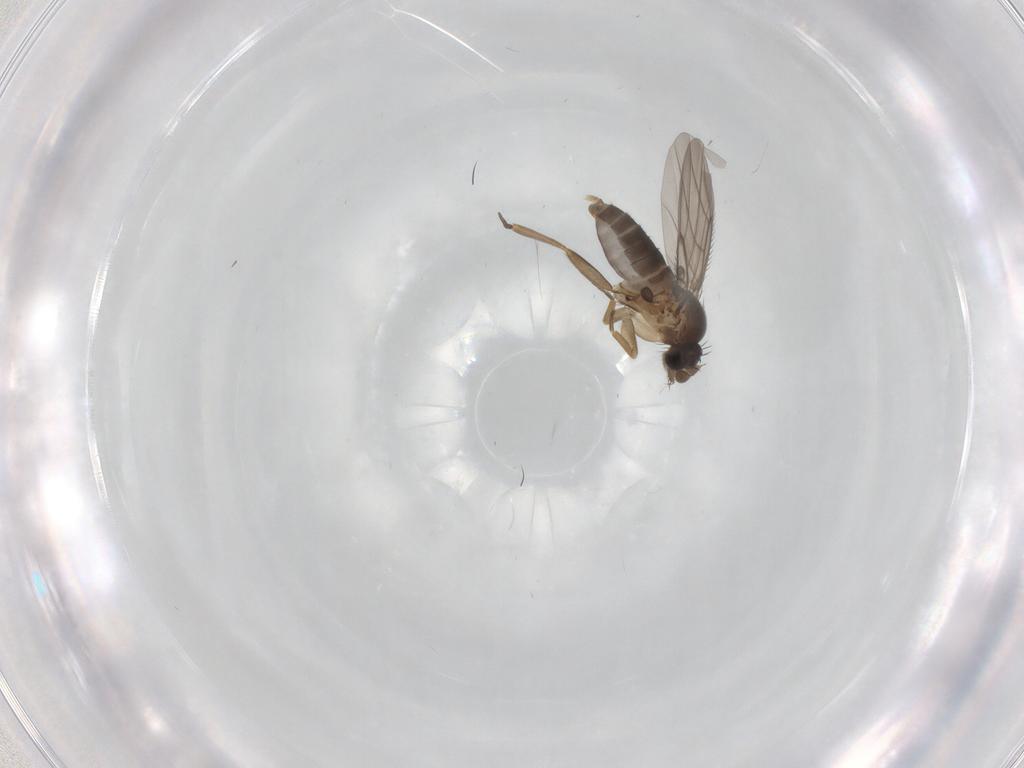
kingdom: Animalia
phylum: Arthropoda
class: Insecta
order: Diptera
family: Phoridae
